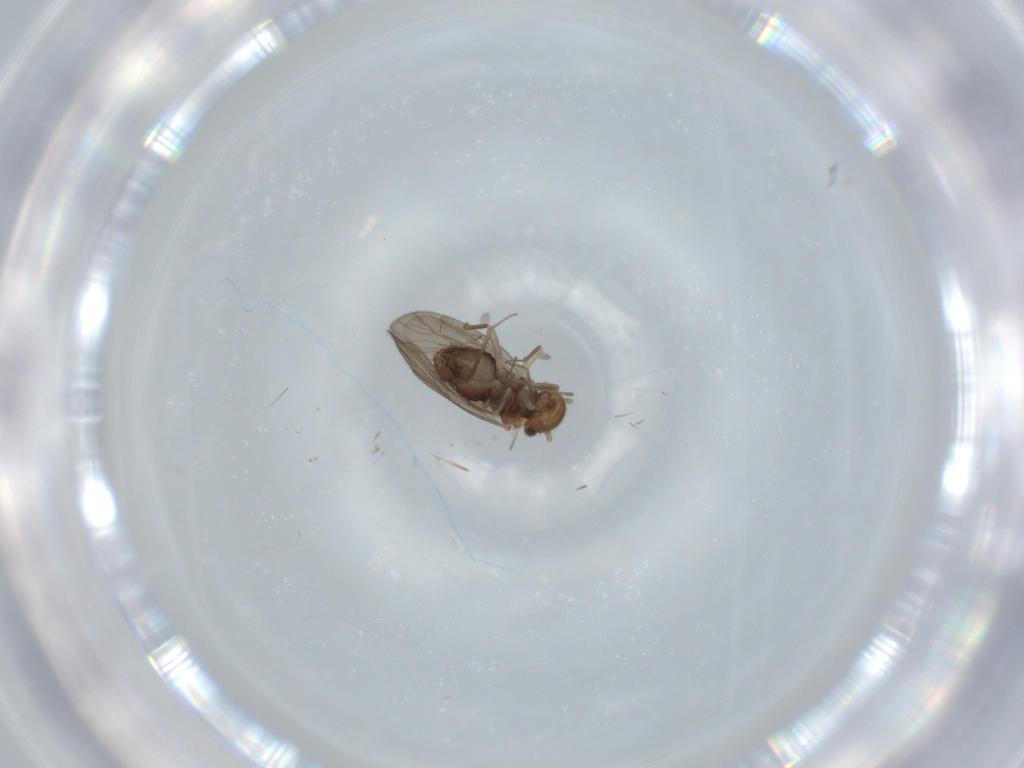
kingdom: Animalia
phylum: Arthropoda
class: Insecta
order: Psocodea
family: Ectopsocidae
